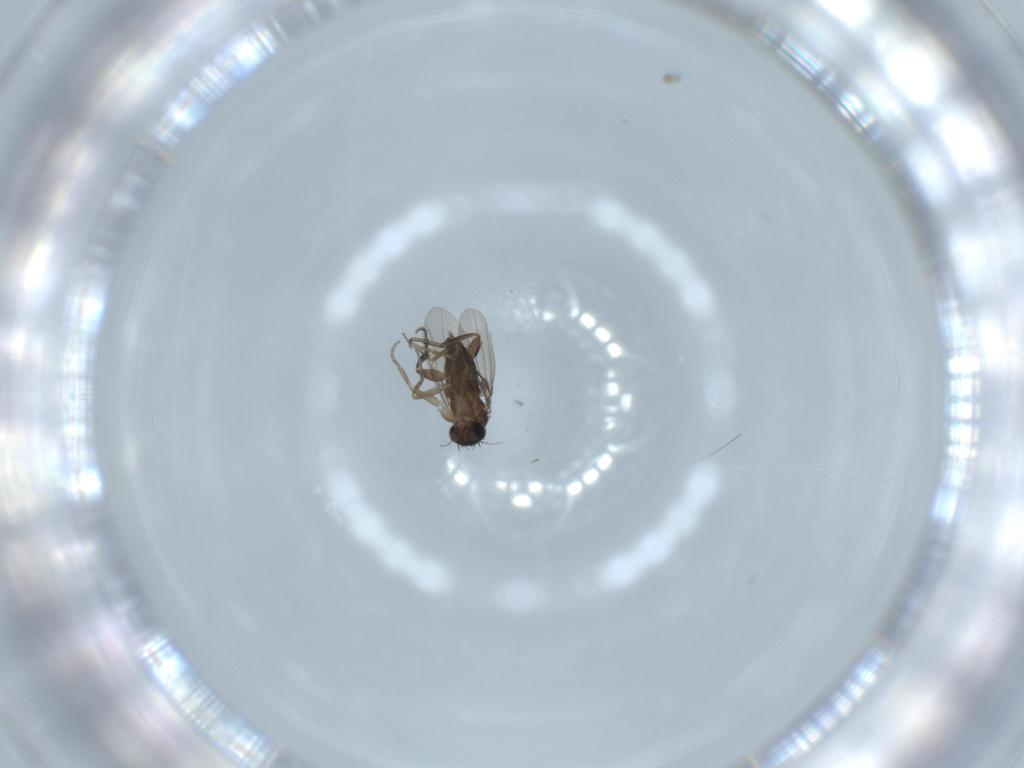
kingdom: Animalia
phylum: Arthropoda
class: Insecta
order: Diptera
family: Phoridae
